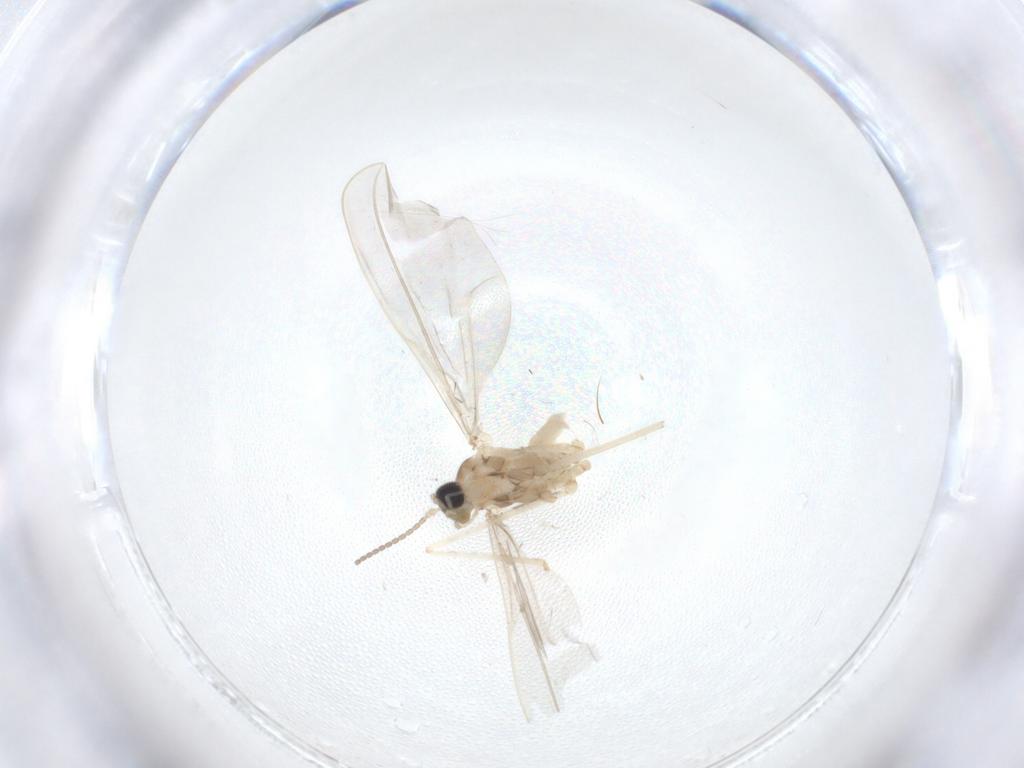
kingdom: Animalia
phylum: Arthropoda
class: Insecta
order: Diptera
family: Cecidomyiidae
